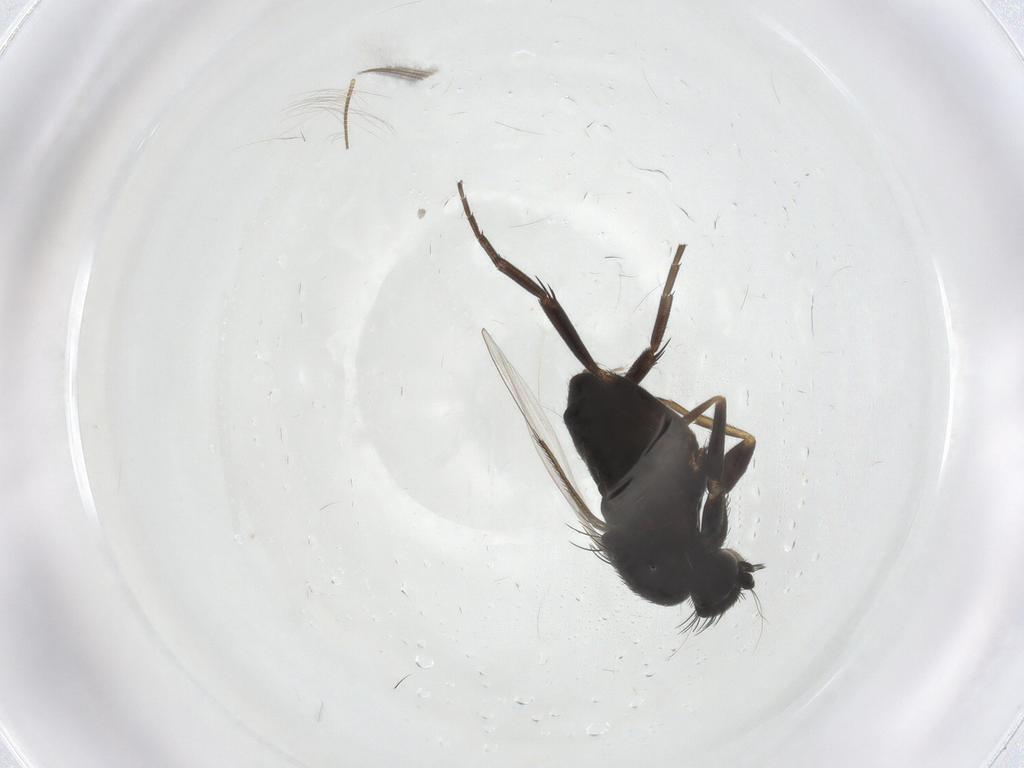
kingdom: Animalia
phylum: Arthropoda
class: Insecta
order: Diptera
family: Phoridae
